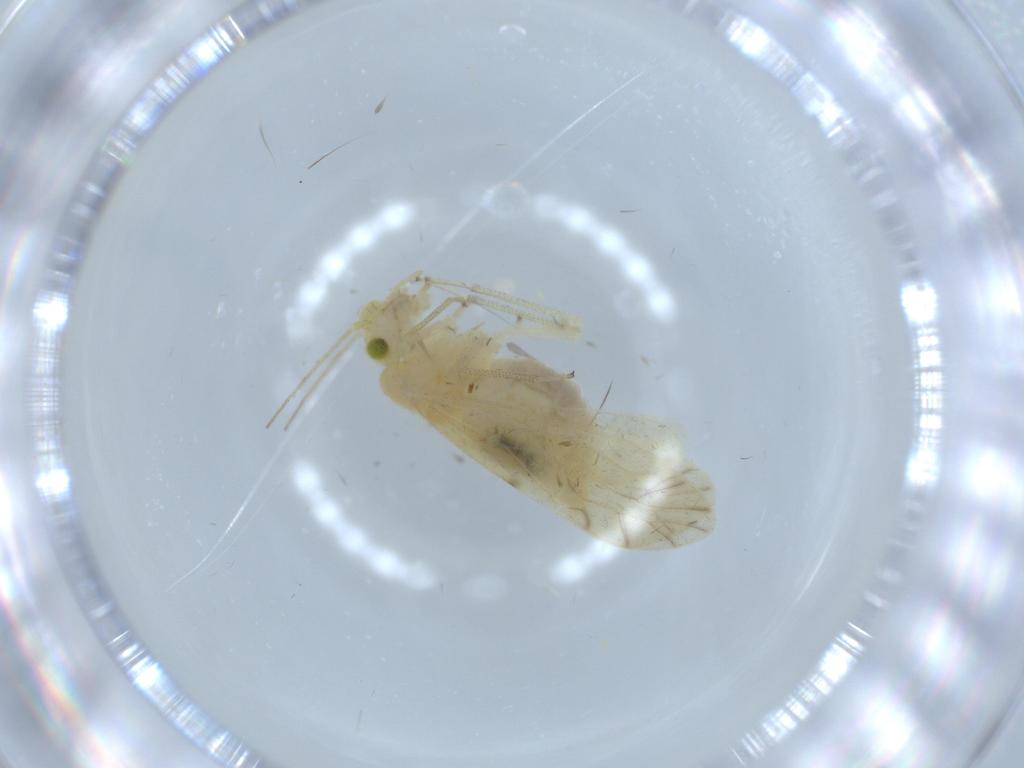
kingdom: Animalia
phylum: Arthropoda
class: Insecta
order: Psocodea
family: Caeciliusidae
